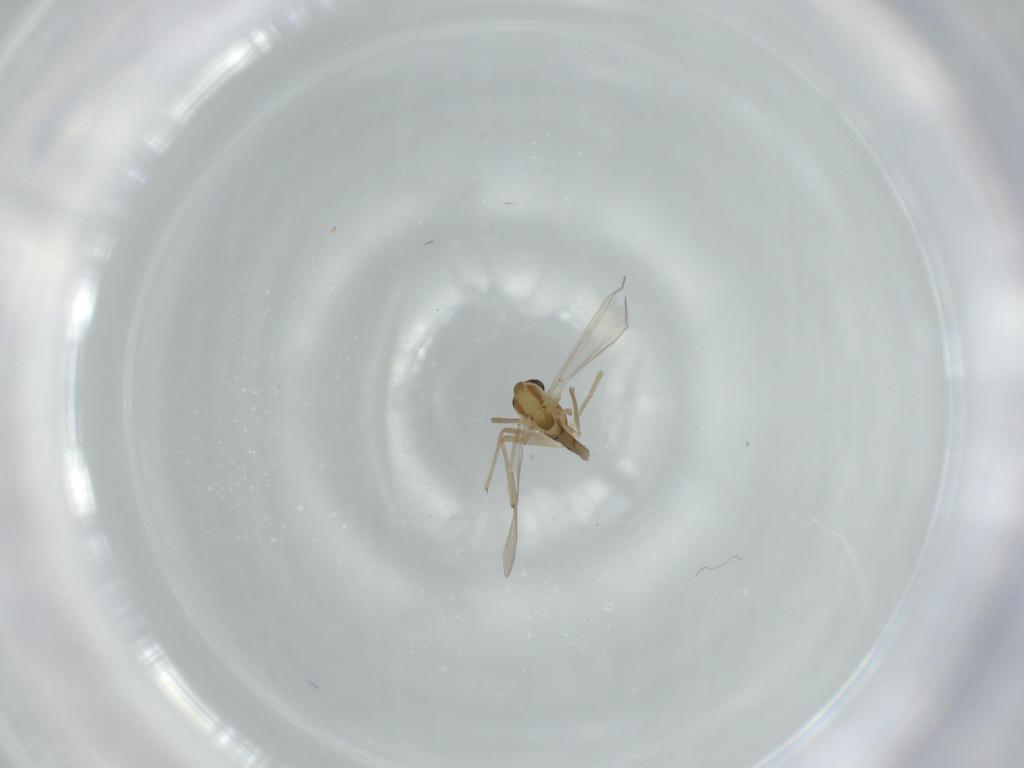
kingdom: Animalia
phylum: Arthropoda
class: Insecta
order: Diptera
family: Chironomidae
